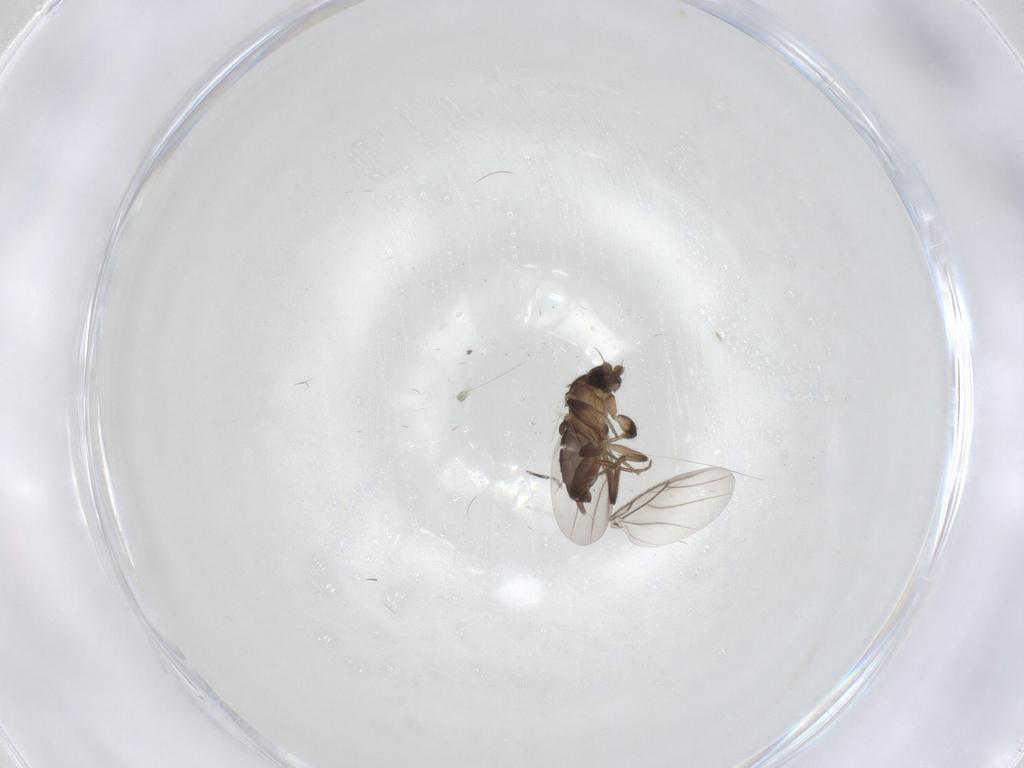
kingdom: Animalia
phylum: Arthropoda
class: Insecta
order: Diptera
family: Phoridae
